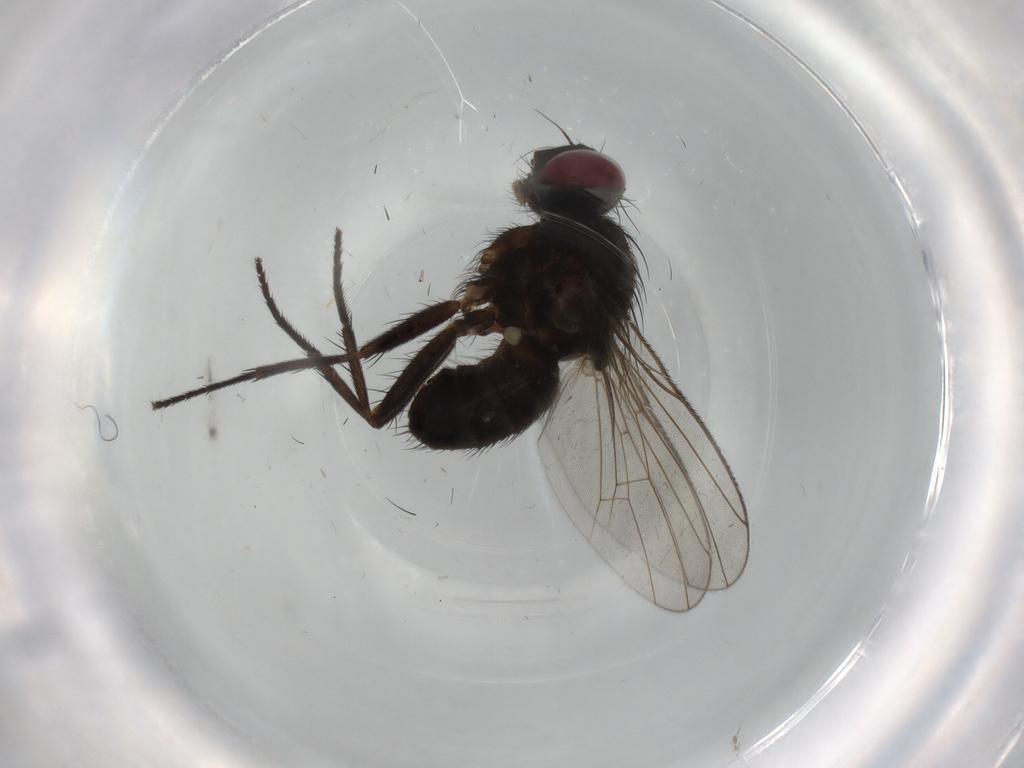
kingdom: Animalia
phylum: Arthropoda
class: Insecta
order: Diptera
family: Muscidae
